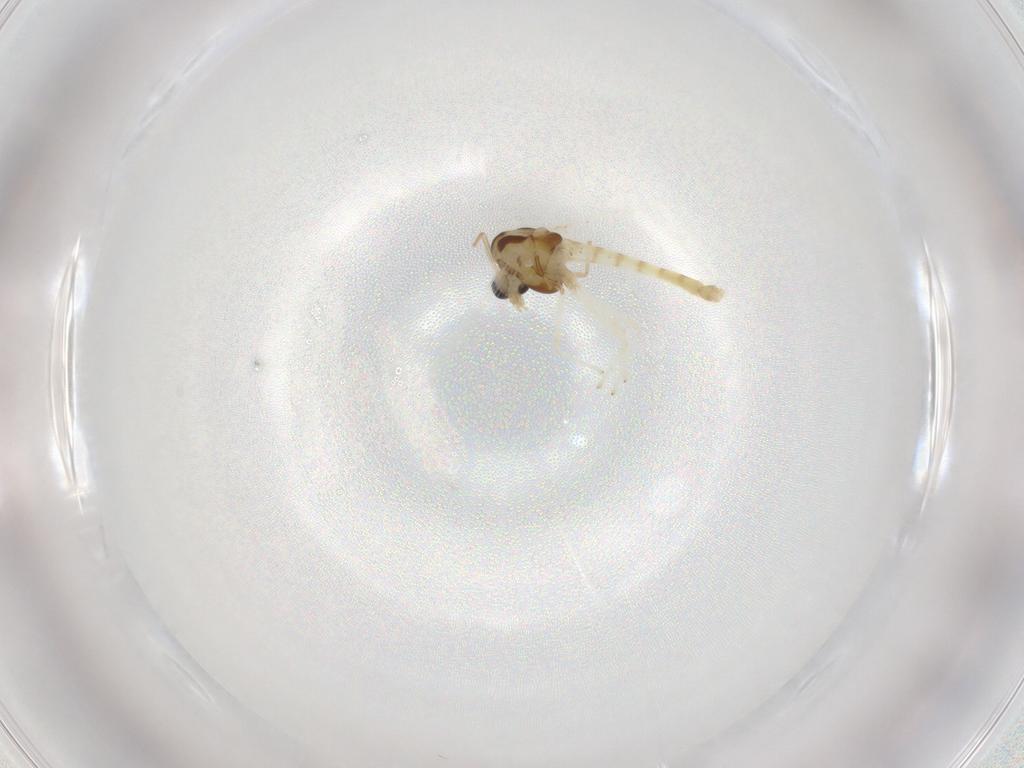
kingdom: Animalia
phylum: Arthropoda
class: Insecta
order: Diptera
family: Chironomidae
